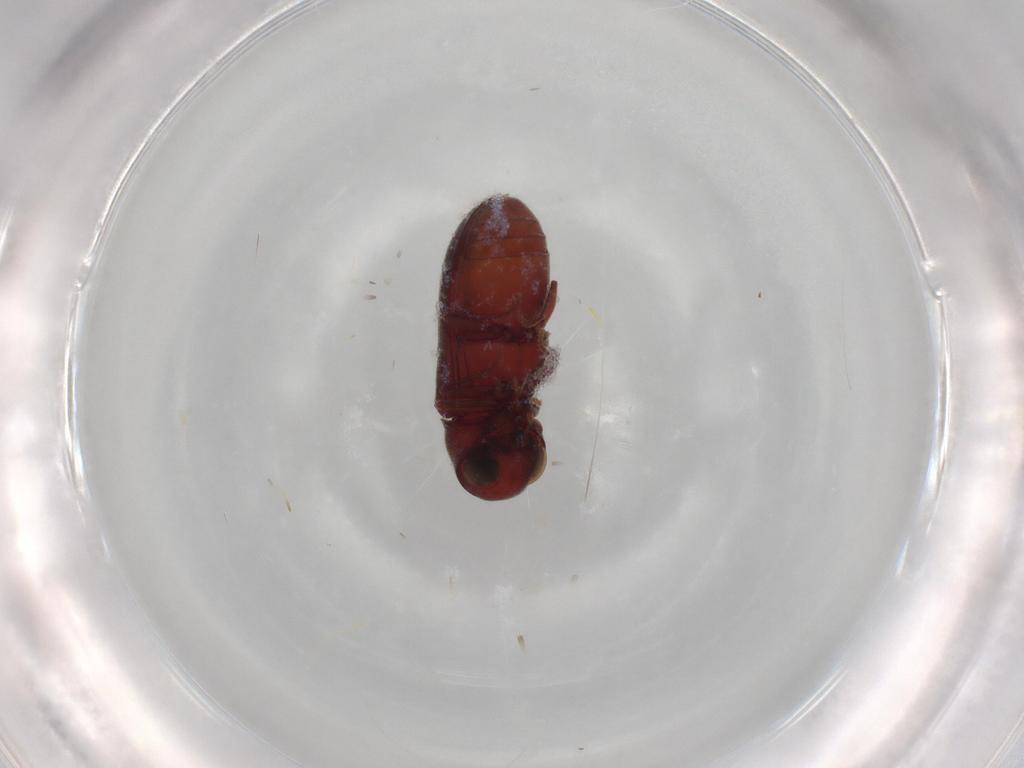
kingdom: Animalia
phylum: Arthropoda
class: Insecta
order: Coleoptera
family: Ptinidae
